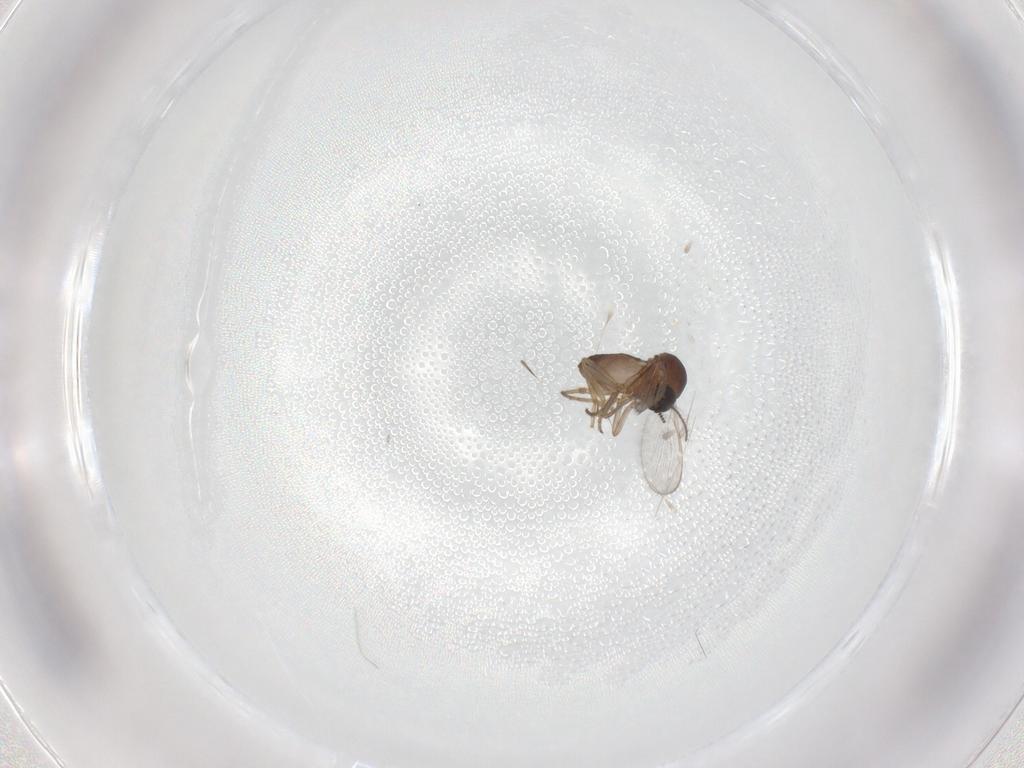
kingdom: Animalia
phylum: Arthropoda
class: Insecta
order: Diptera
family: Ceratopogonidae
